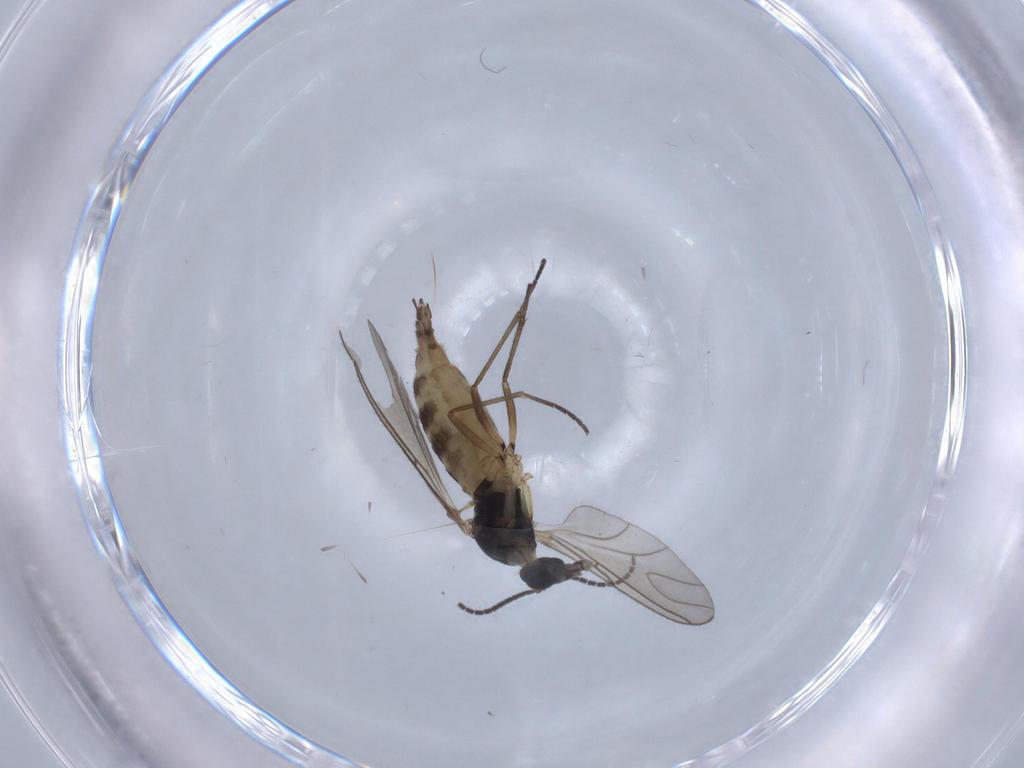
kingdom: Animalia
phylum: Arthropoda
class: Insecta
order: Diptera
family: Sciaridae
